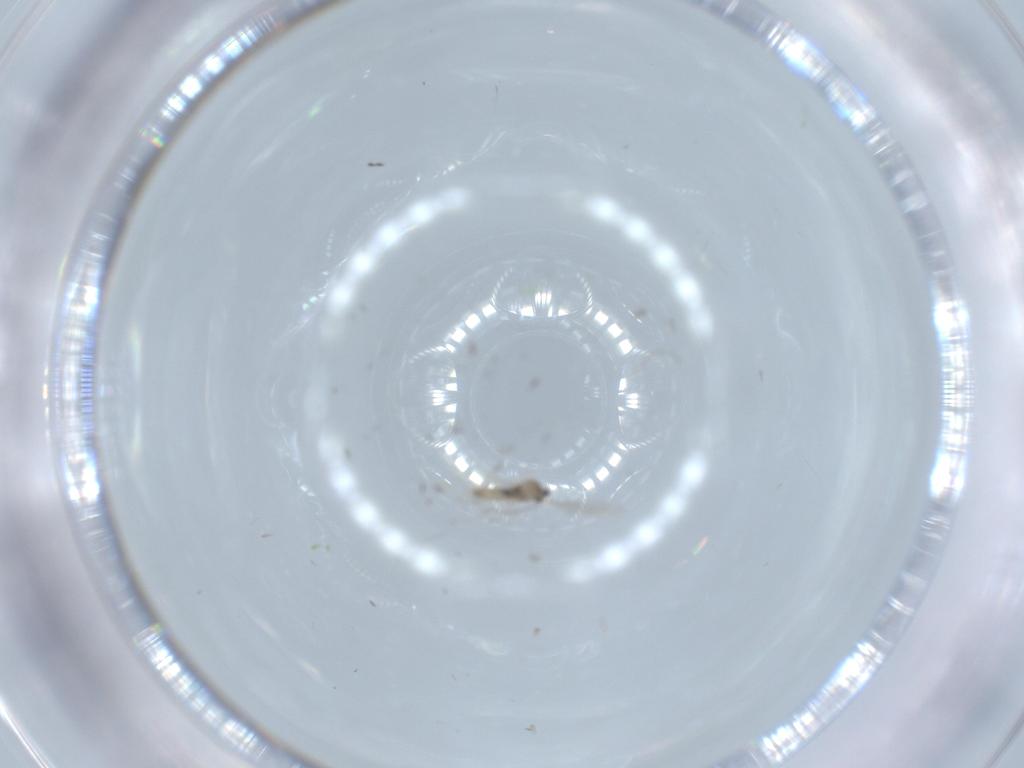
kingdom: Animalia
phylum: Arthropoda
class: Insecta
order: Diptera
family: Cecidomyiidae
